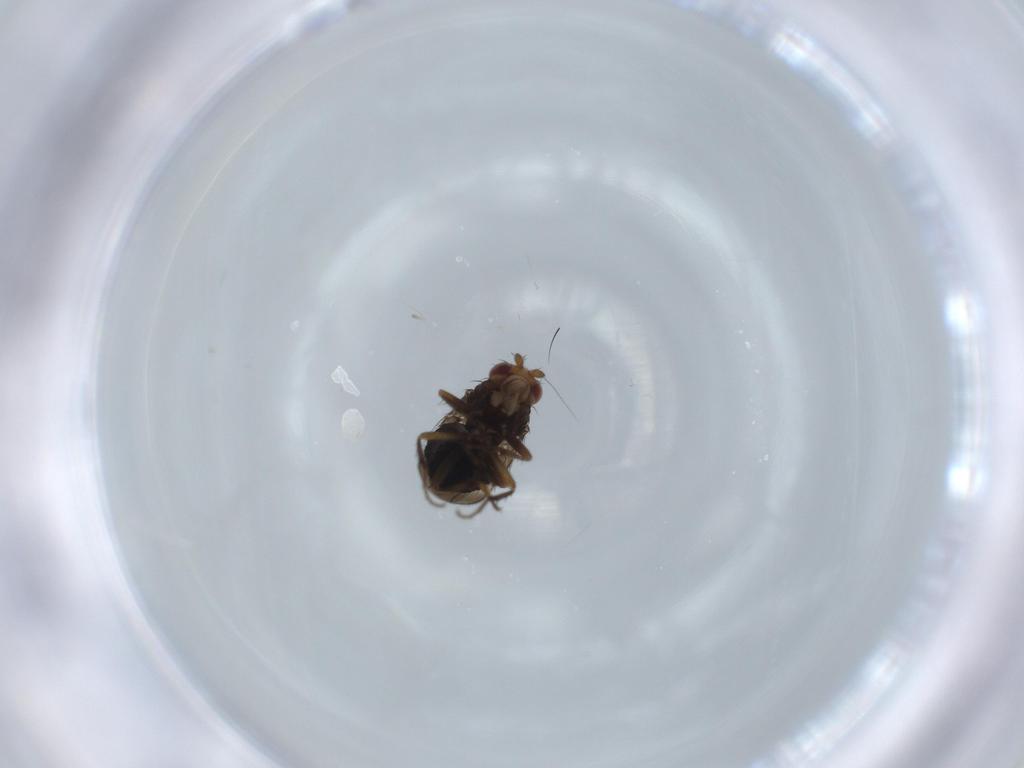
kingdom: Animalia
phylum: Arthropoda
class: Insecta
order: Diptera
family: Sphaeroceridae
